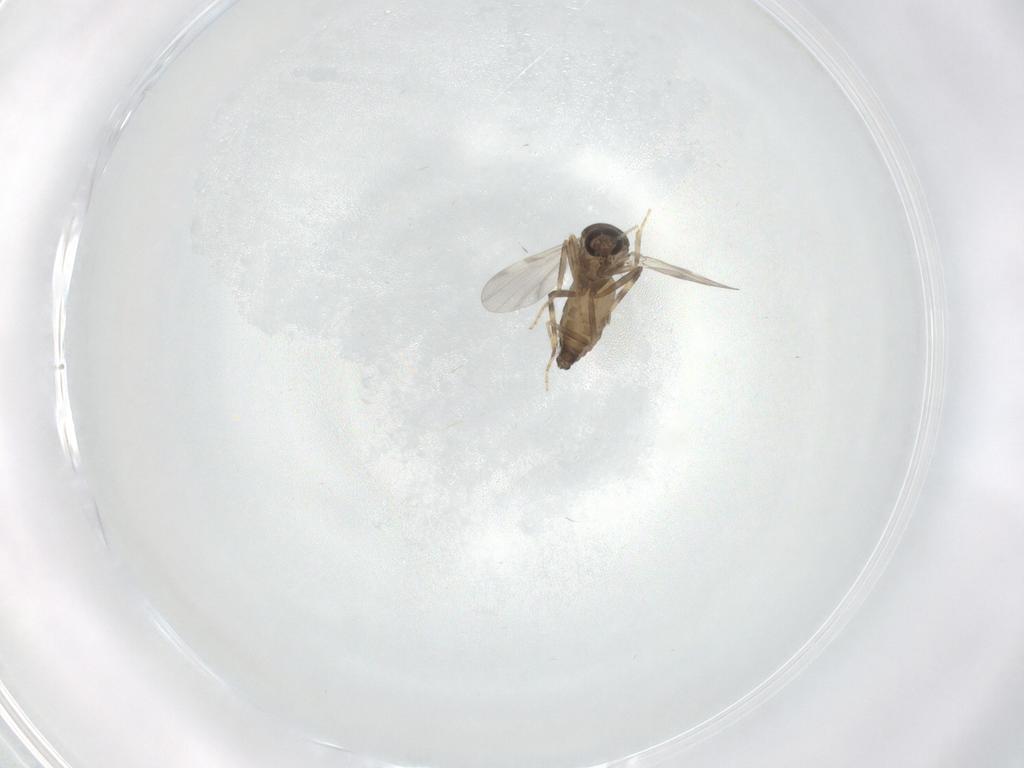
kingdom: Animalia
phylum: Arthropoda
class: Insecta
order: Diptera
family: Ceratopogonidae
